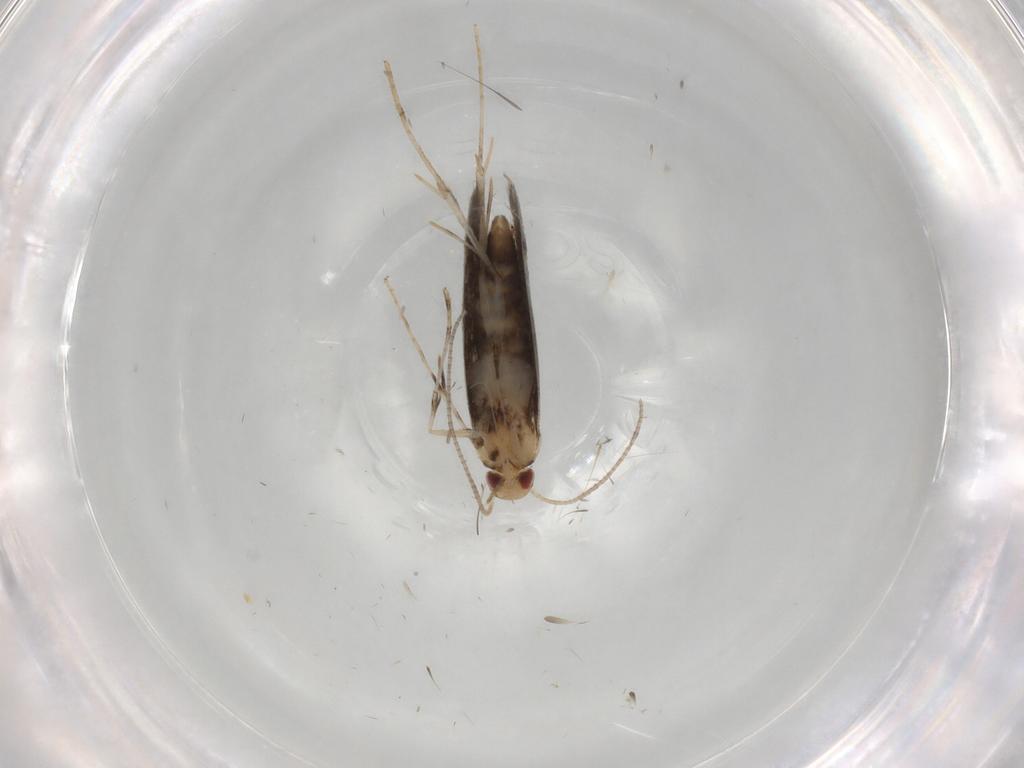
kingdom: Animalia
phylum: Arthropoda
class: Insecta
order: Lepidoptera
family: Gracillariidae
